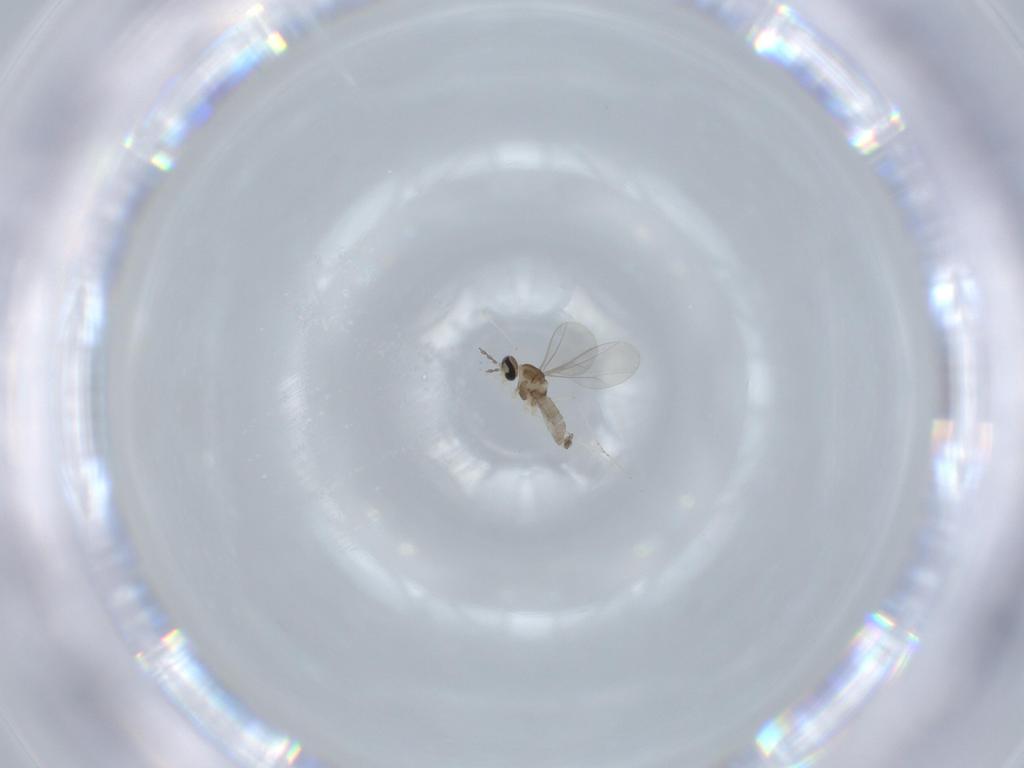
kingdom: Animalia
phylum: Arthropoda
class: Insecta
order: Diptera
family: Cecidomyiidae
